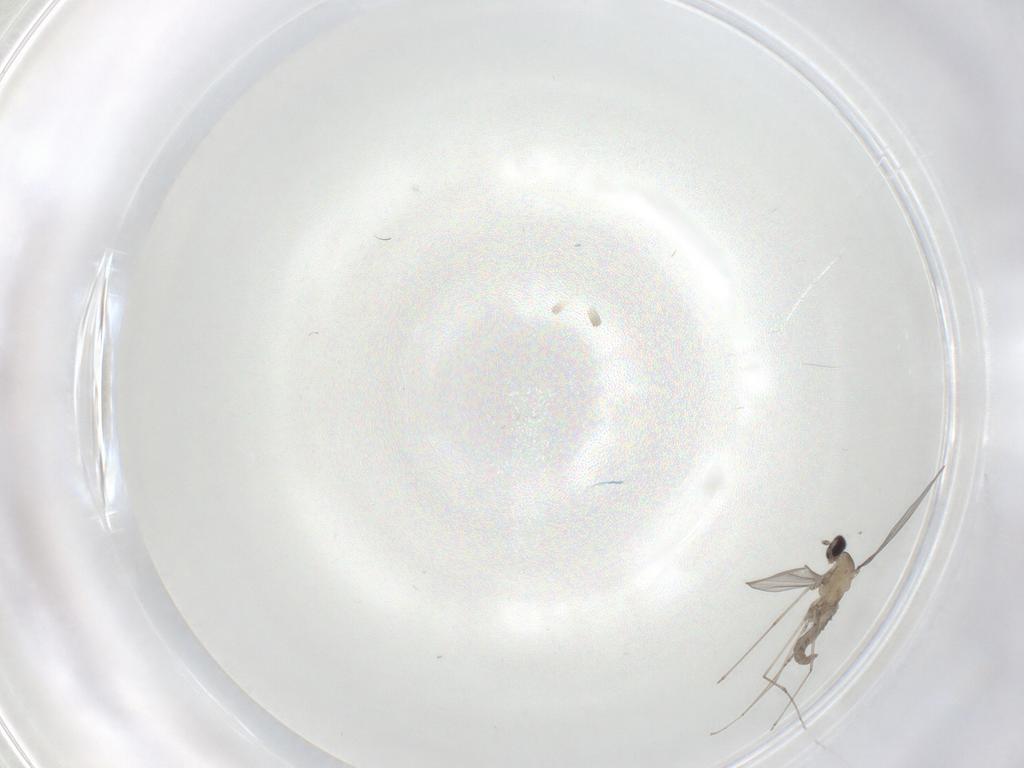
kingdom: Animalia
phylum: Arthropoda
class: Insecta
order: Diptera
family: Cecidomyiidae
